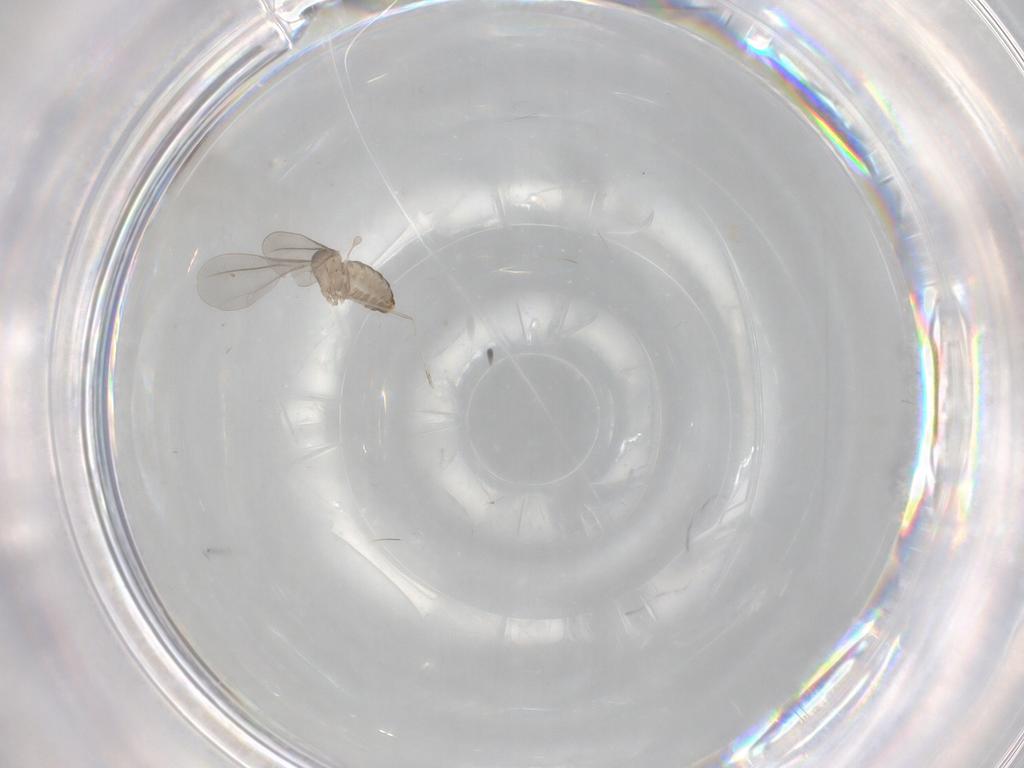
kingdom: Animalia
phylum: Arthropoda
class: Insecta
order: Diptera
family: Cecidomyiidae
